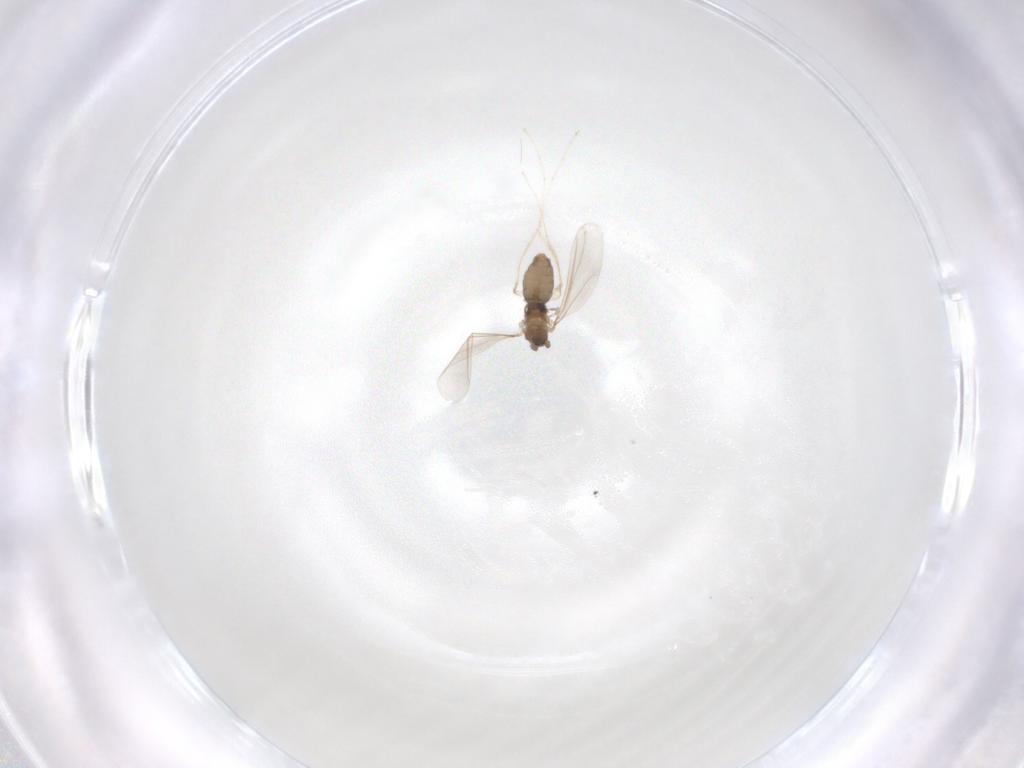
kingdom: Animalia
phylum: Arthropoda
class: Insecta
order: Diptera
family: Cecidomyiidae
